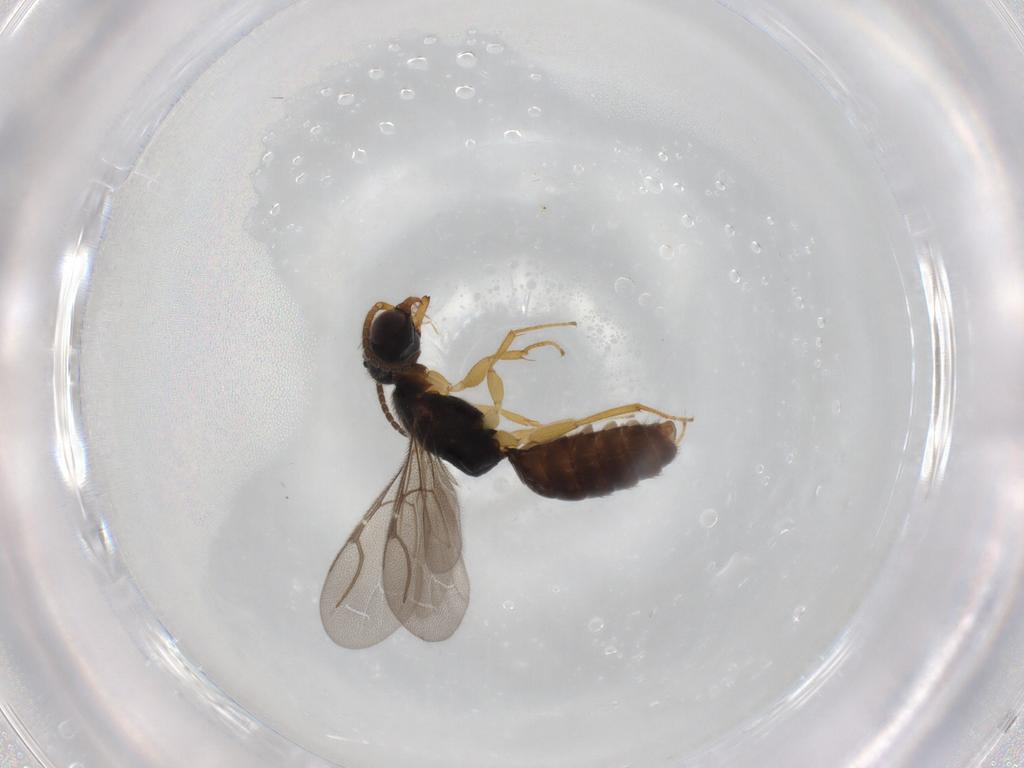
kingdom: Animalia
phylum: Arthropoda
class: Insecta
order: Hymenoptera
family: Bethylidae
